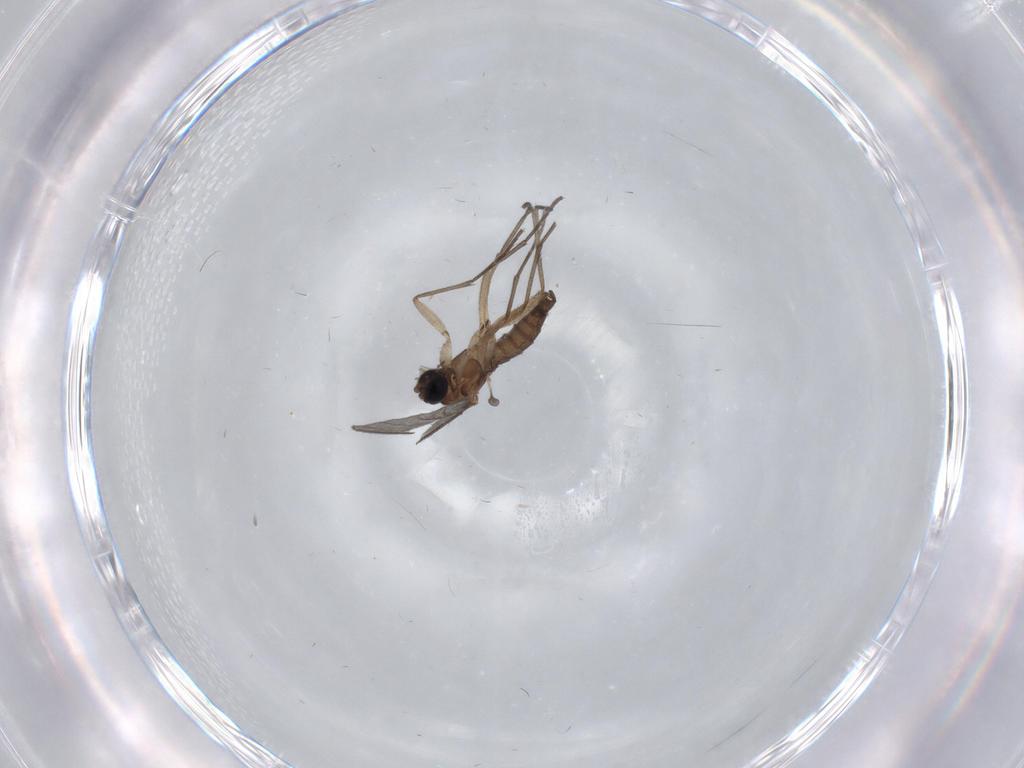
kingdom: Animalia
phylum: Arthropoda
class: Insecta
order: Diptera
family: Sciaridae
